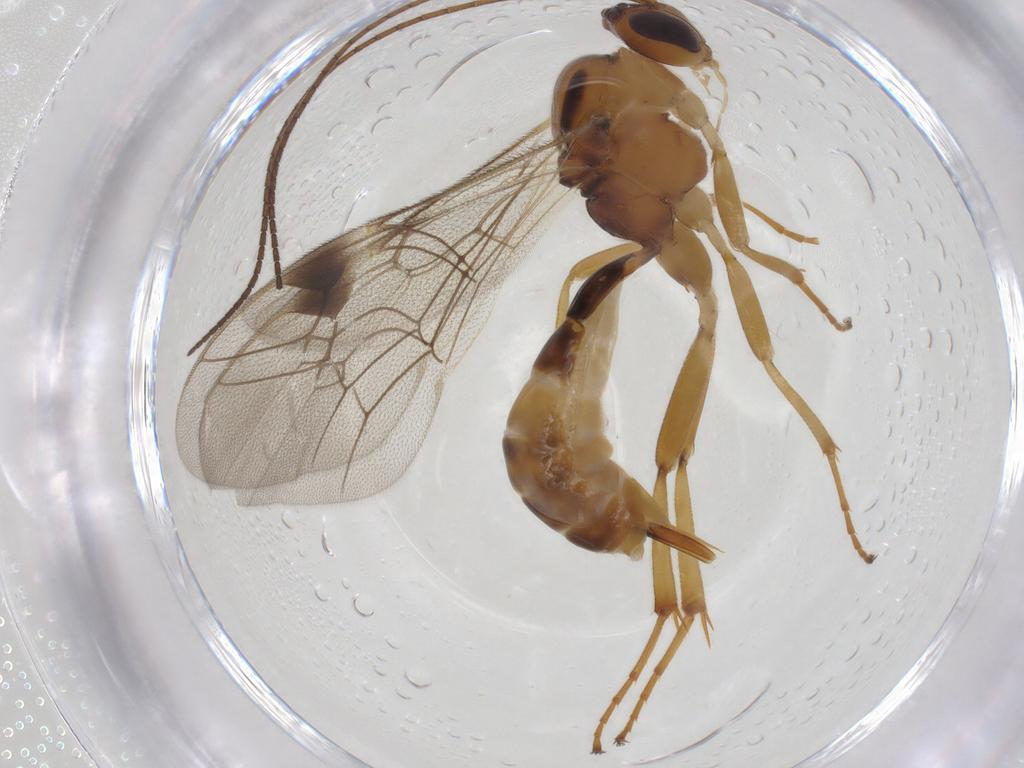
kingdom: Animalia
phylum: Arthropoda
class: Insecta
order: Hymenoptera
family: Ichneumonidae
